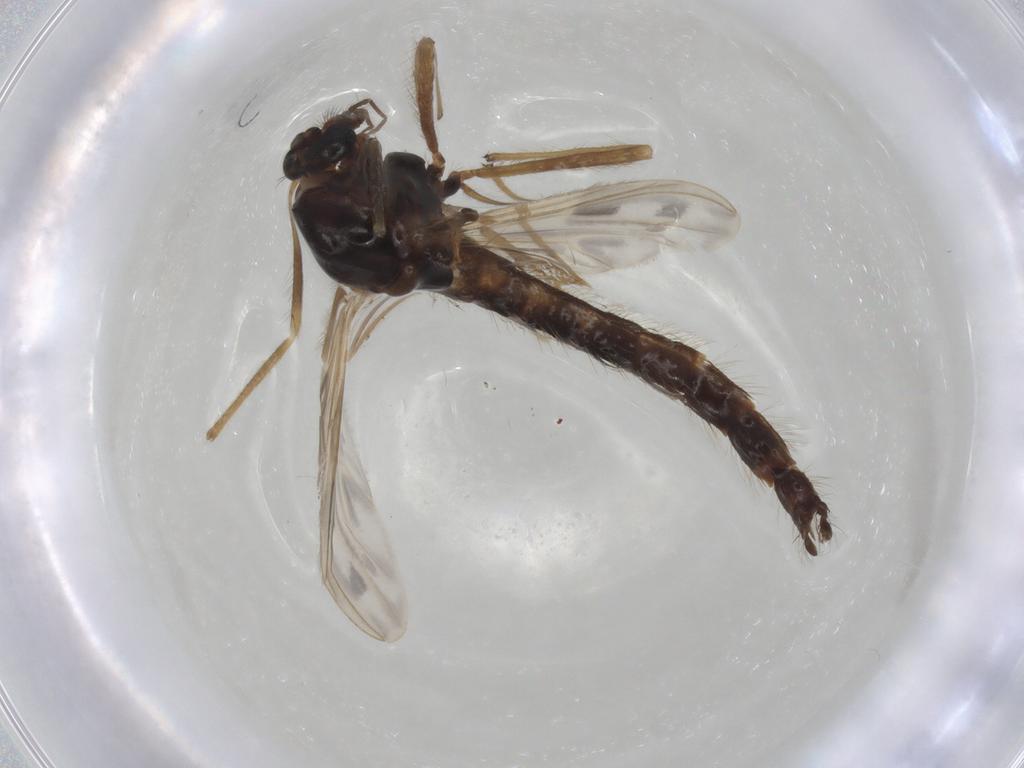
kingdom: Animalia
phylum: Arthropoda
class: Insecta
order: Diptera
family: Chironomidae
